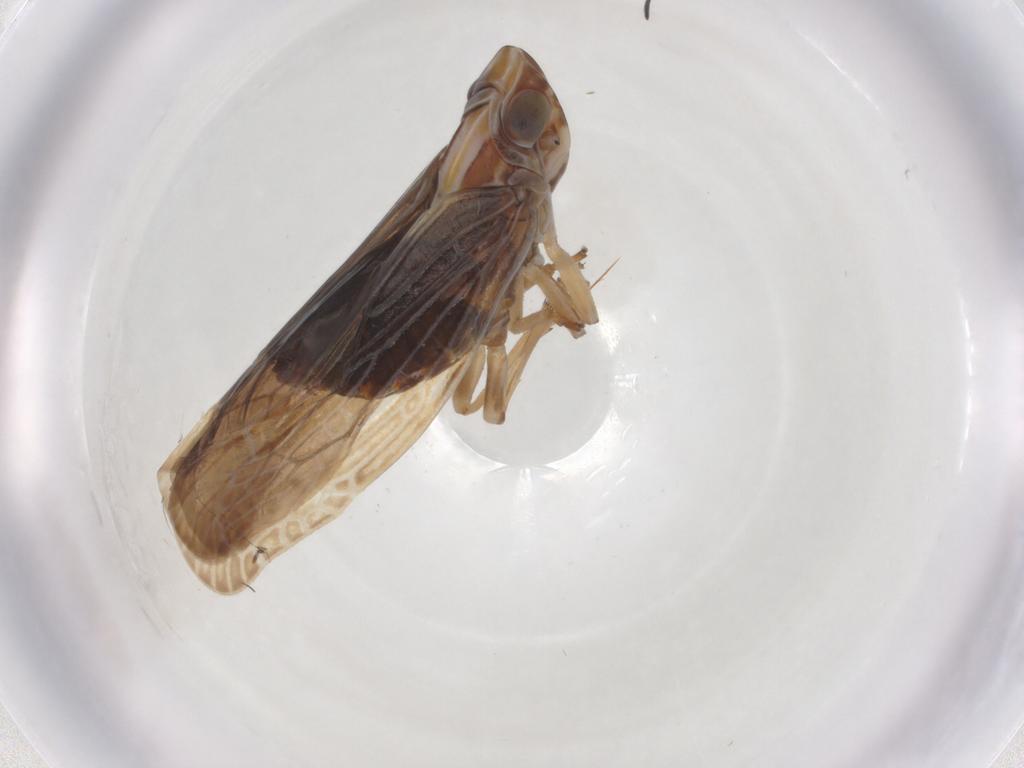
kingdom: Animalia
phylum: Arthropoda
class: Insecta
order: Hemiptera
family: Achilidae
